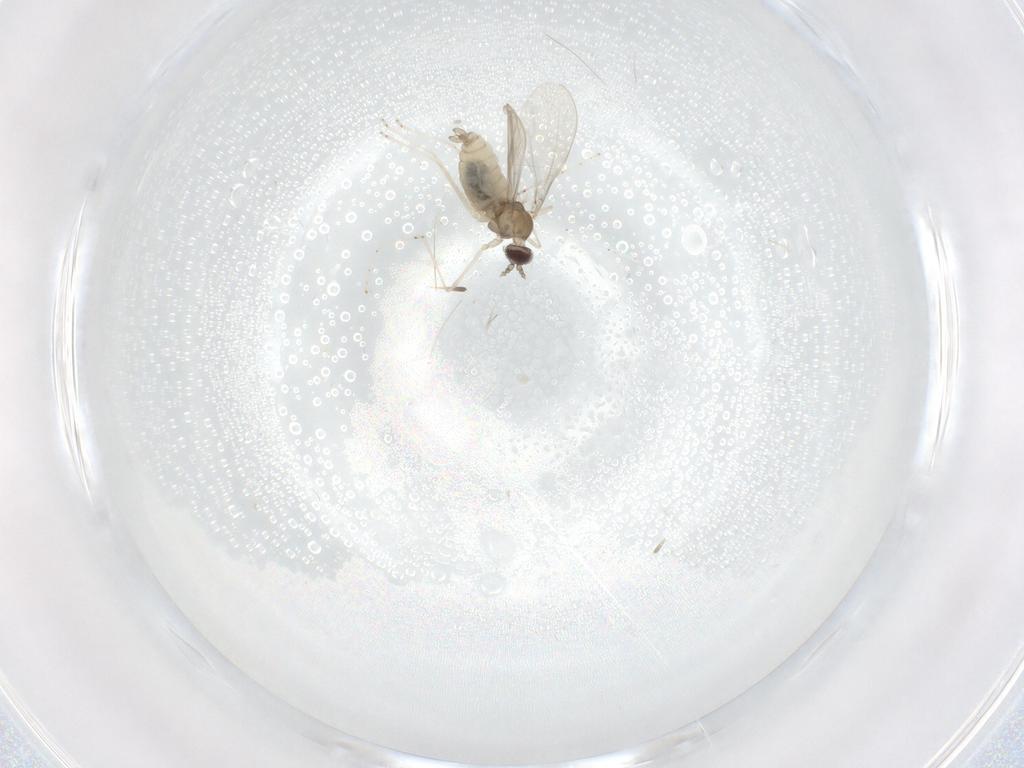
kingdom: Animalia
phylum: Arthropoda
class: Insecta
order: Diptera
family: Cecidomyiidae
